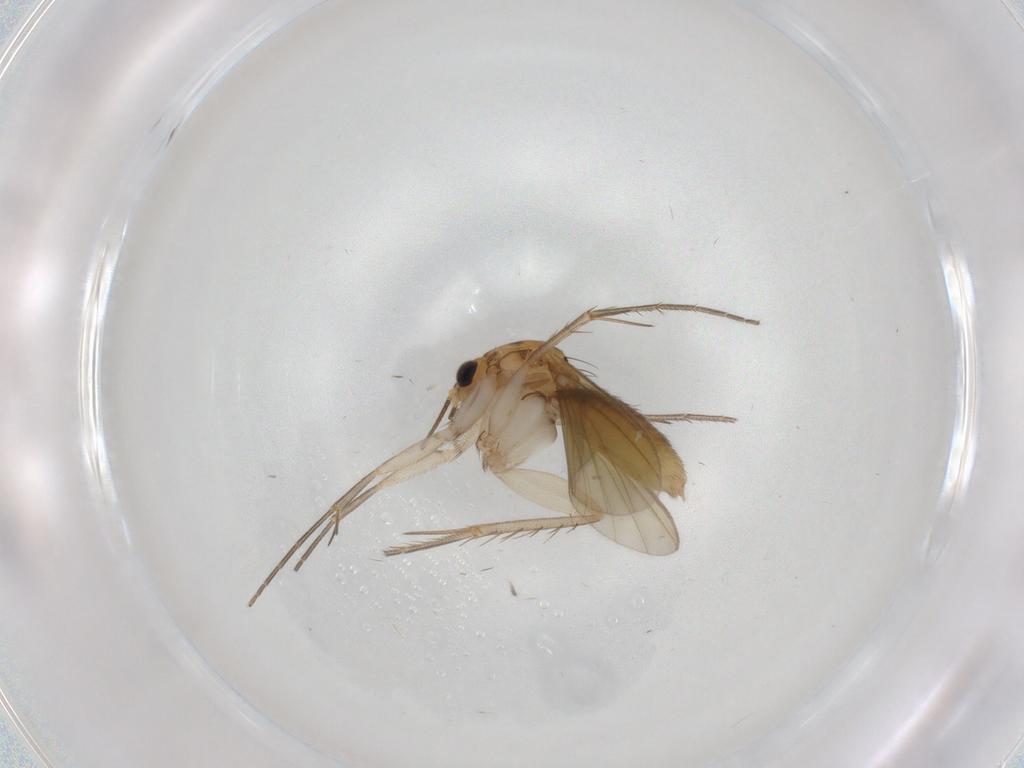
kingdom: Animalia
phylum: Arthropoda
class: Insecta
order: Diptera
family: Mycetophilidae
